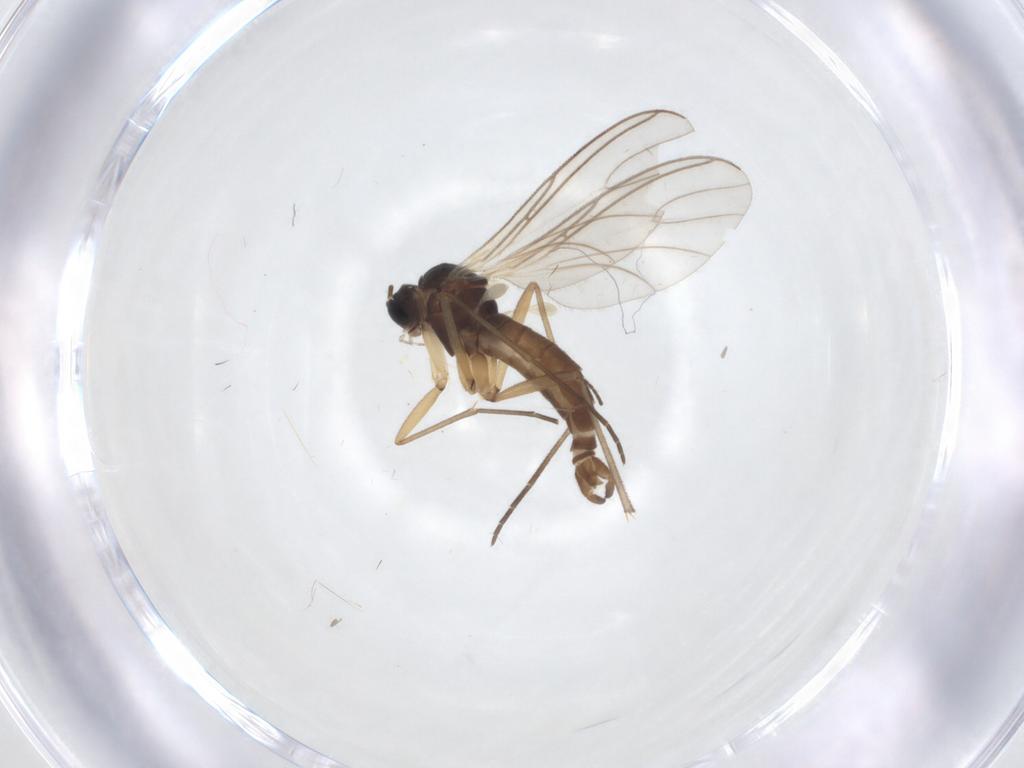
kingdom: Animalia
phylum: Arthropoda
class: Insecta
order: Diptera
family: Sciaridae
